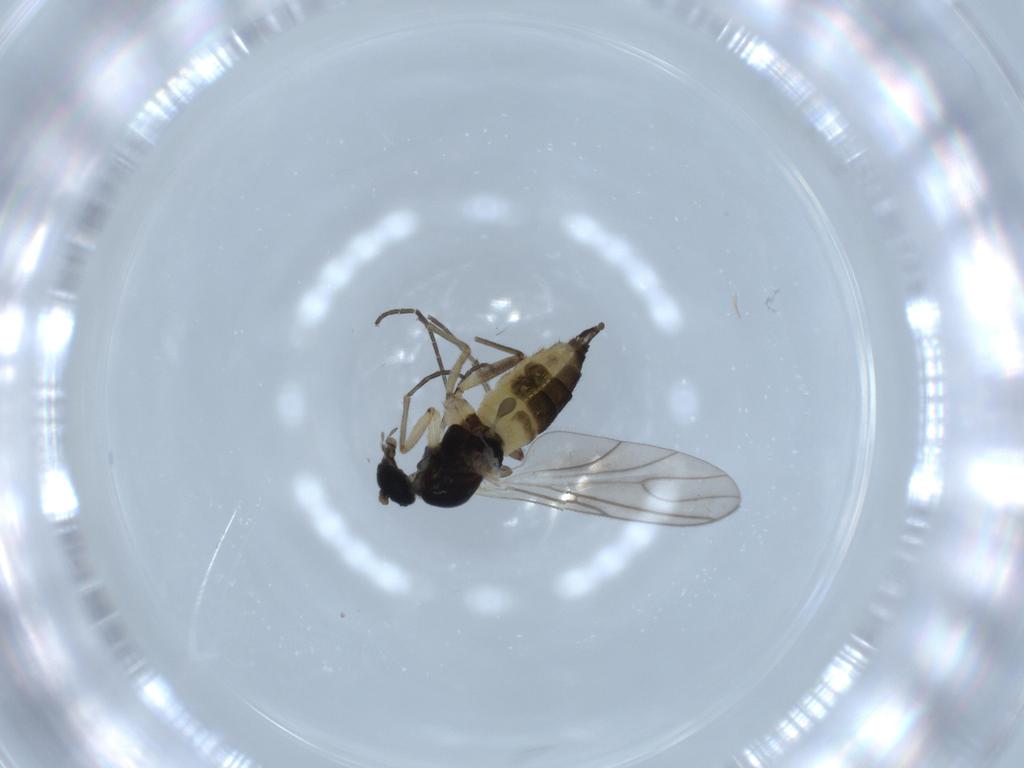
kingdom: Animalia
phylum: Arthropoda
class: Insecta
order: Diptera
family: Sciaridae
